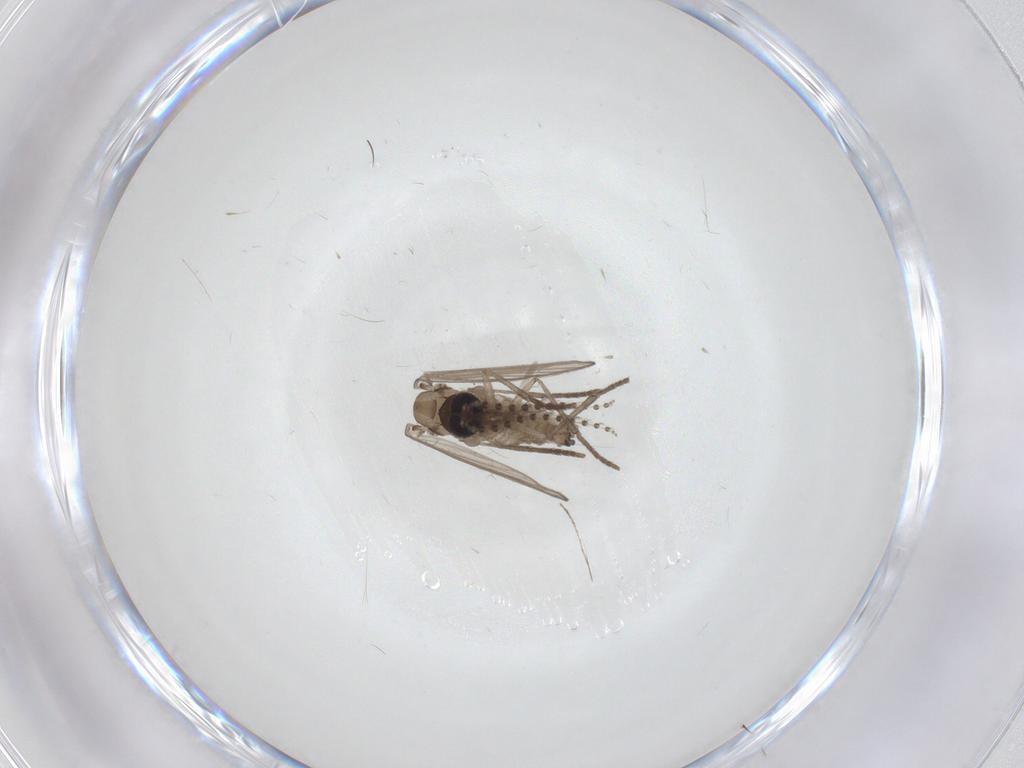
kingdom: Animalia
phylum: Arthropoda
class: Insecta
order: Diptera
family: Psychodidae
